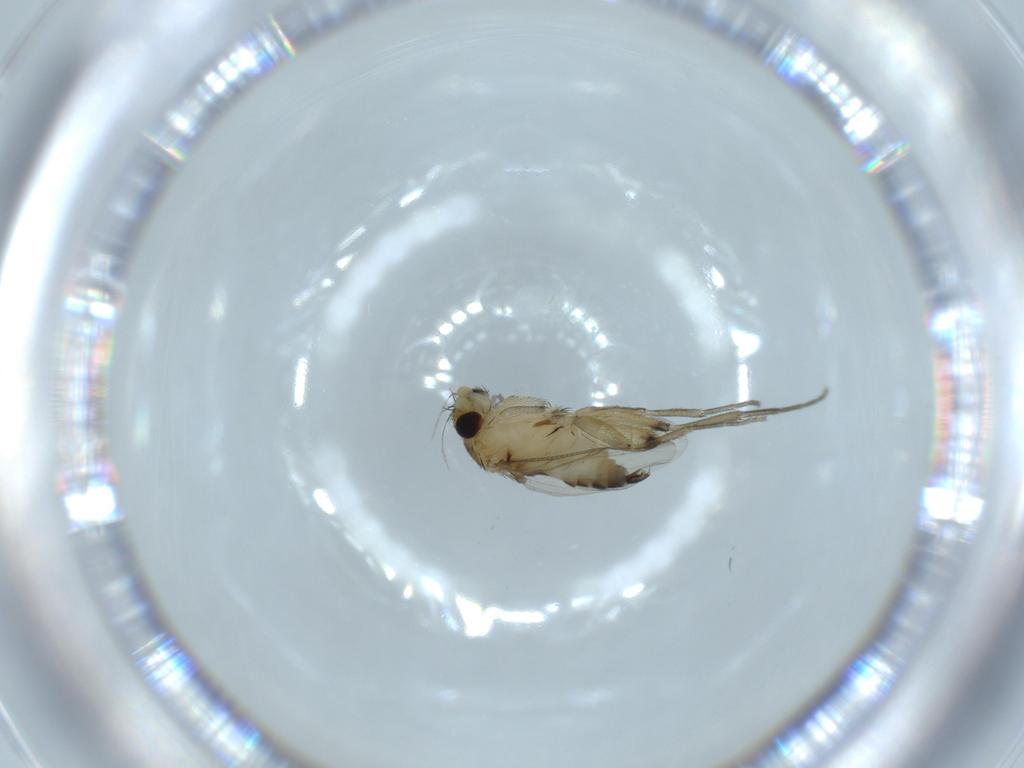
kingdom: Animalia
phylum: Arthropoda
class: Insecta
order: Diptera
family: Phoridae
